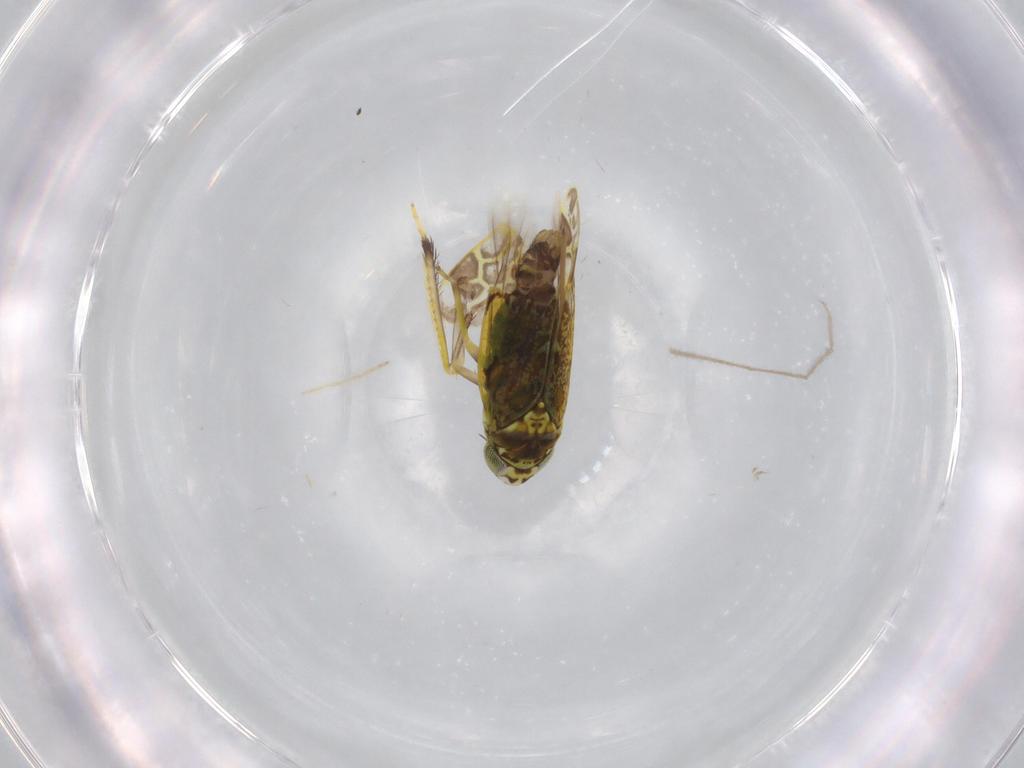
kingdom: Animalia
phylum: Arthropoda
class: Insecta
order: Hemiptera
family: Cicadellidae
